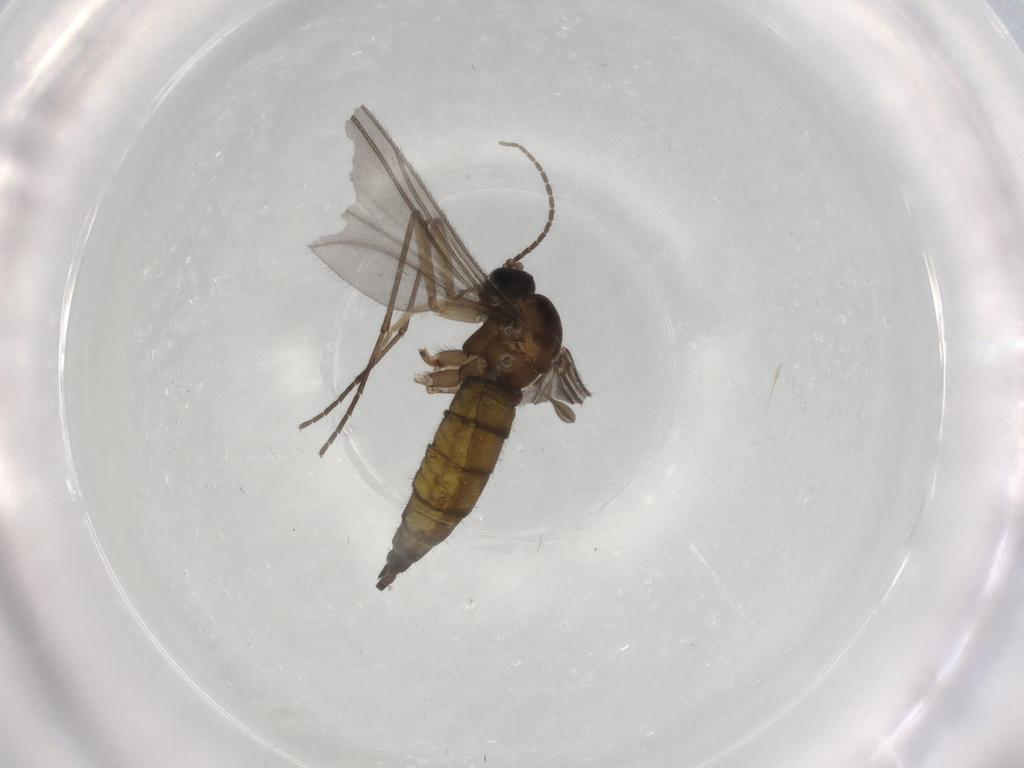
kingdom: Animalia
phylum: Arthropoda
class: Insecta
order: Diptera
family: Sciaridae
